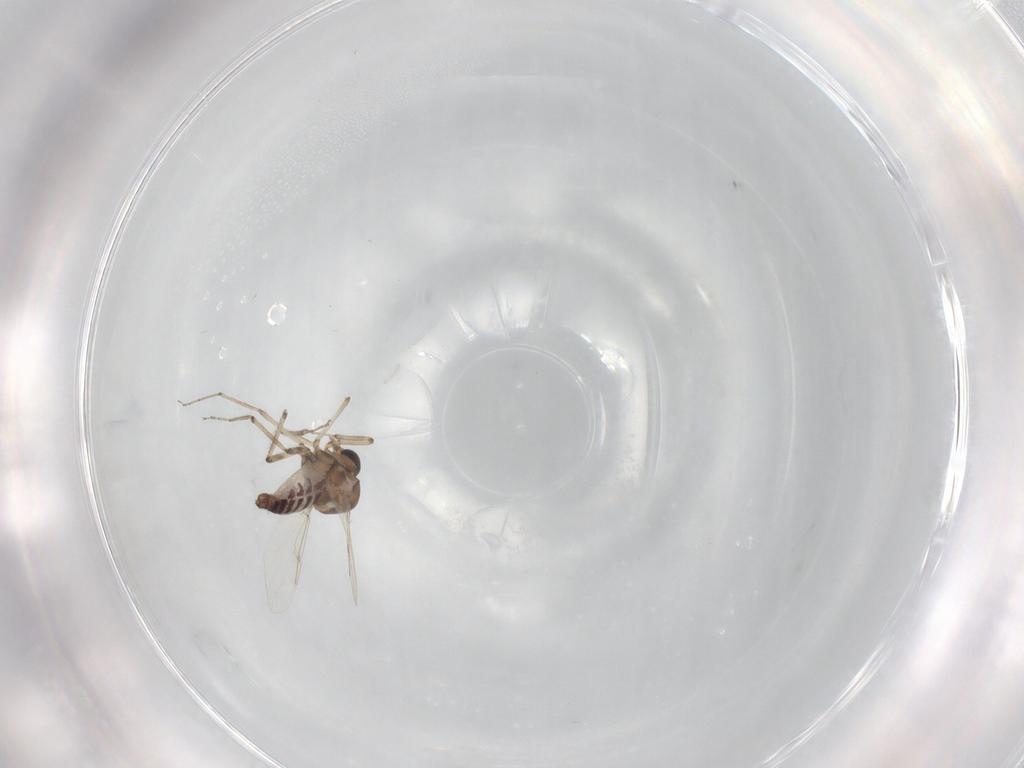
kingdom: Animalia
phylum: Arthropoda
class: Insecta
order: Diptera
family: Ceratopogonidae
